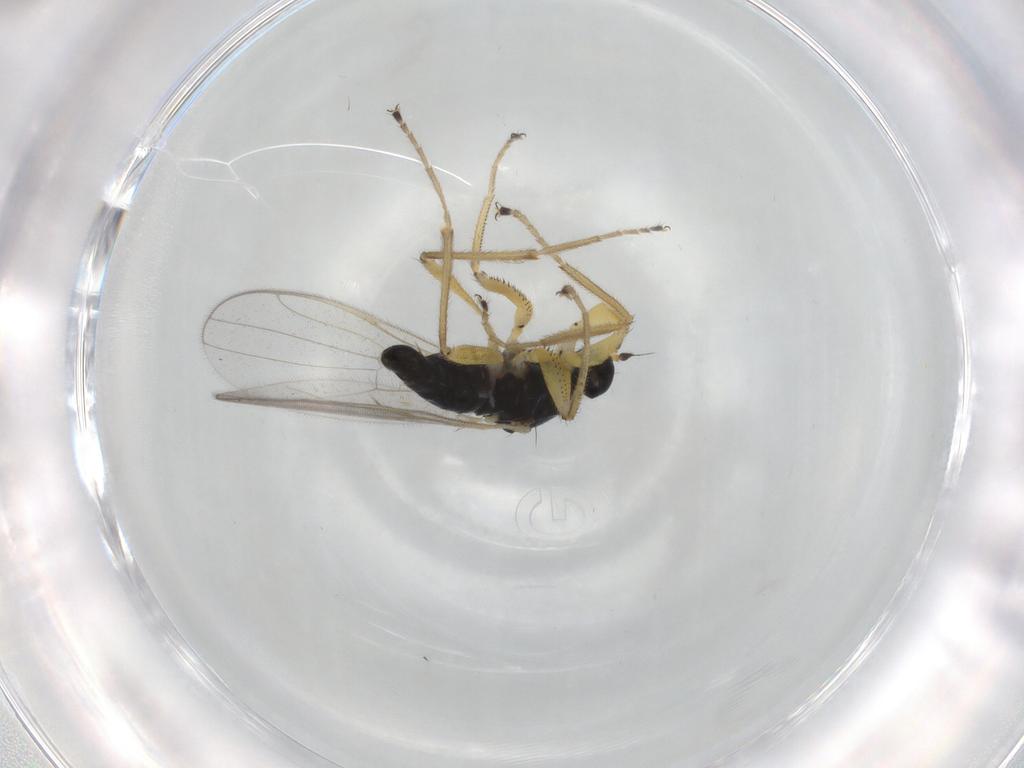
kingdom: Animalia
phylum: Arthropoda
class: Insecta
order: Diptera
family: Hybotidae
